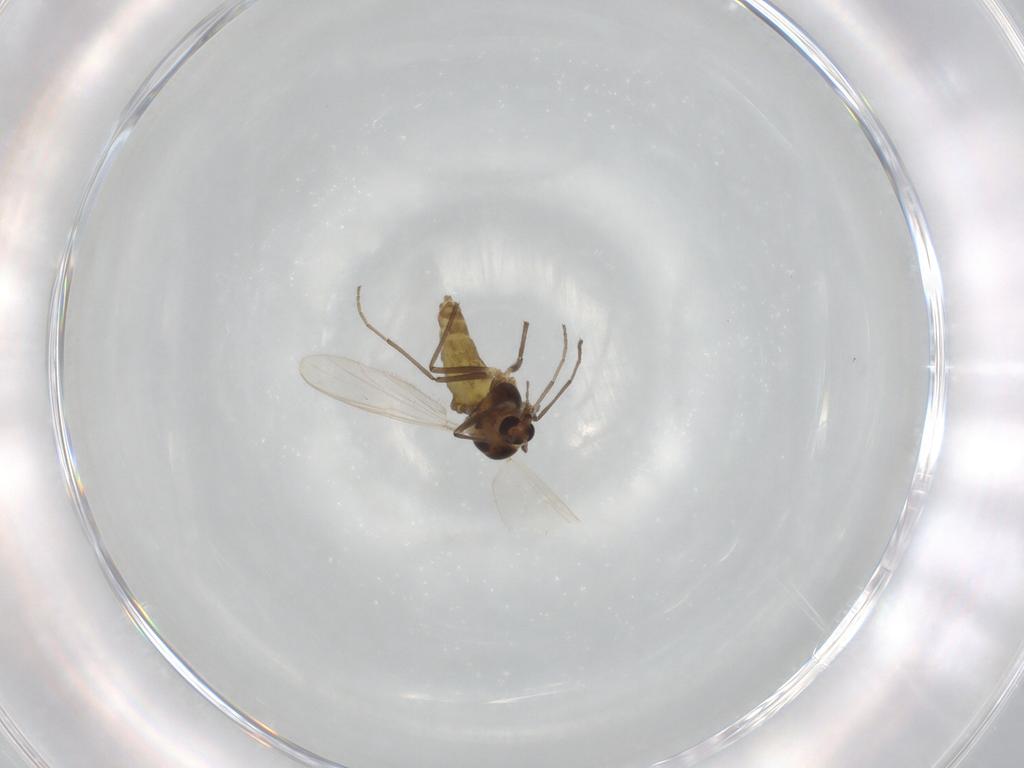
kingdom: Animalia
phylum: Arthropoda
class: Insecta
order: Diptera
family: Chironomidae
